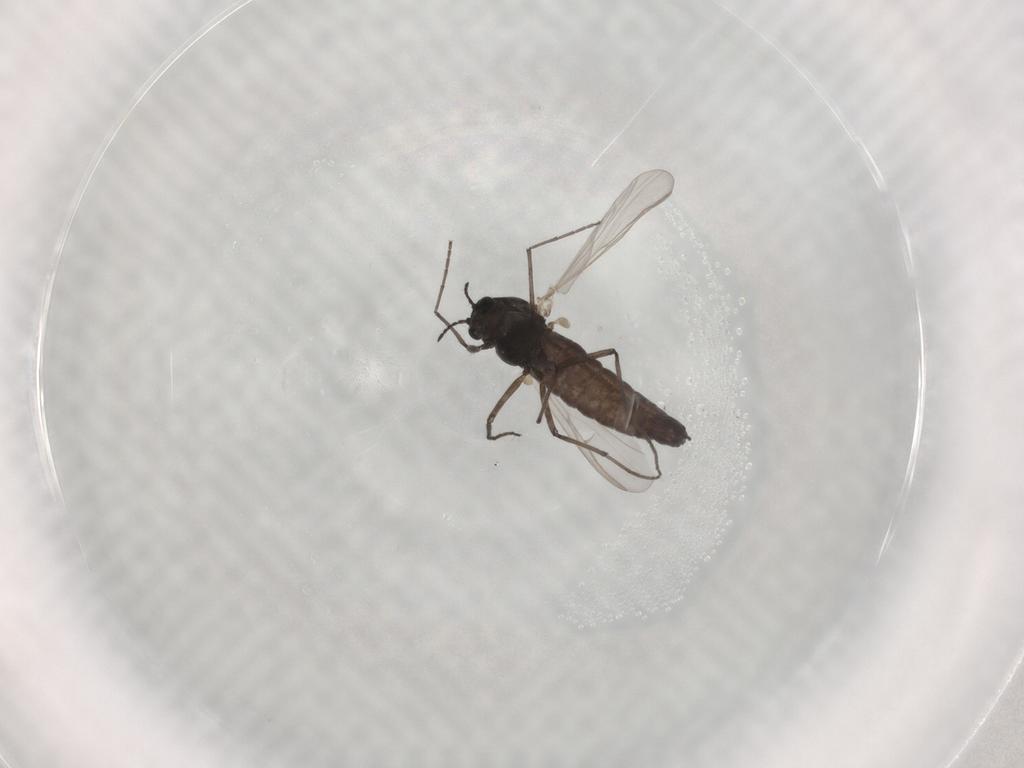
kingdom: Animalia
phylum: Arthropoda
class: Insecta
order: Diptera
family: Chironomidae
